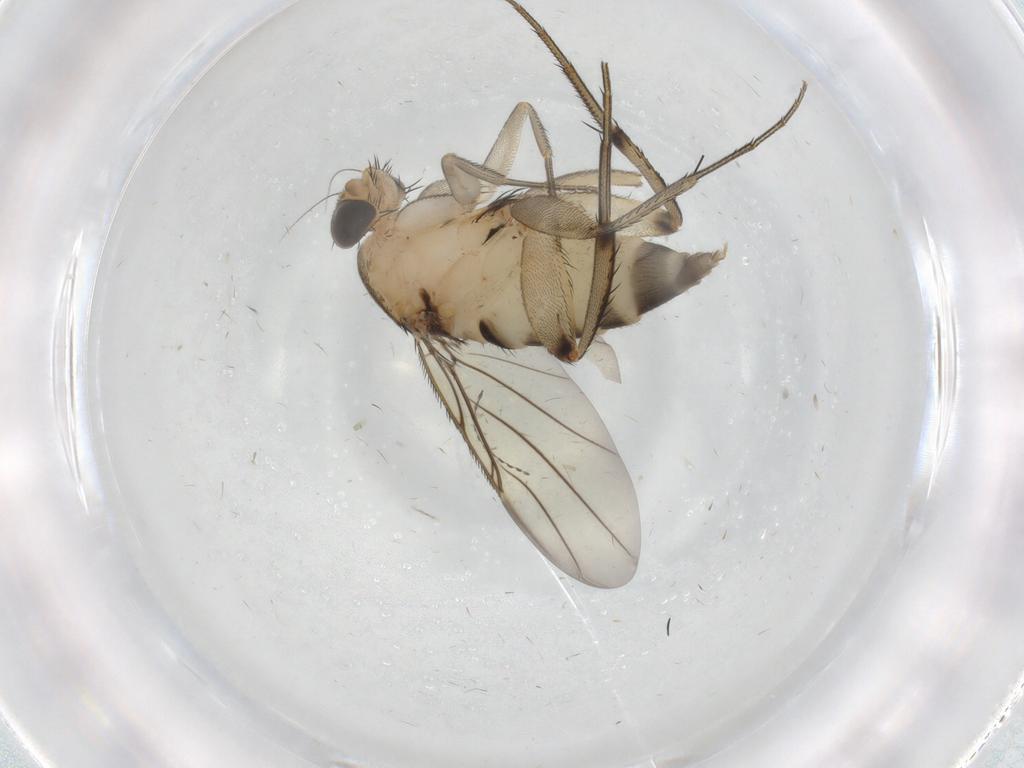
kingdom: Animalia
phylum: Arthropoda
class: Insecta
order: Diptera
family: Phoridae
